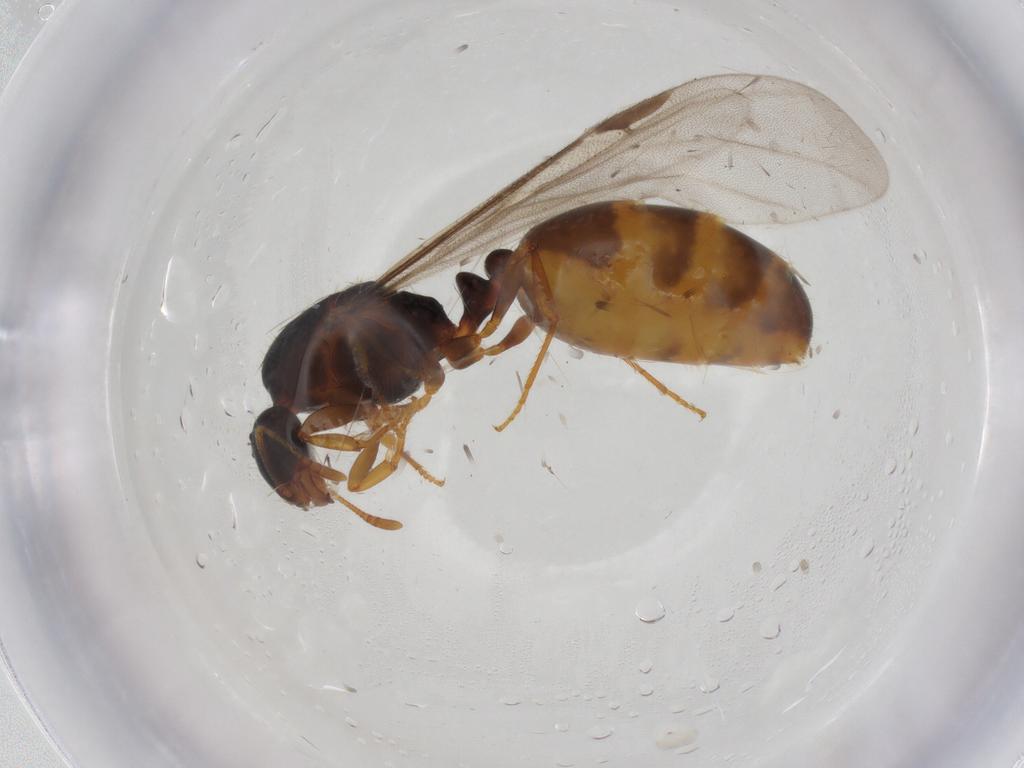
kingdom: Animalia
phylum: Arthropoda
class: Insecta
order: Hymenoptera
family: Formicidae
